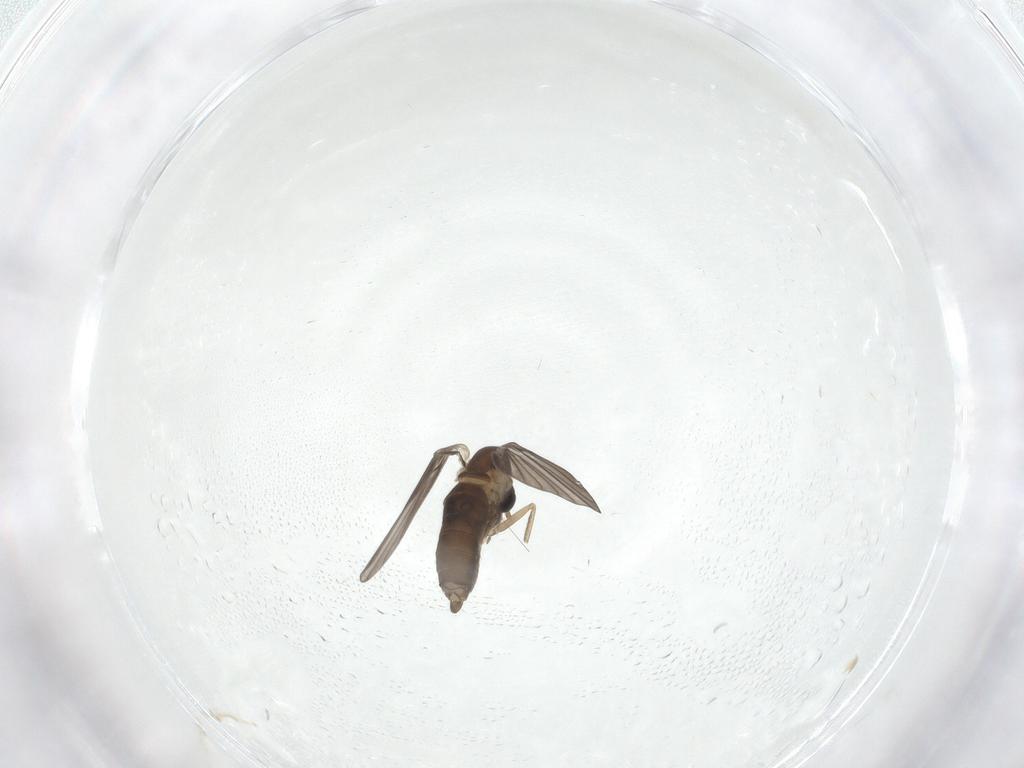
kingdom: Animalia
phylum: Arthropoda
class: Insecta
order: Diptera
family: Psychodidae
